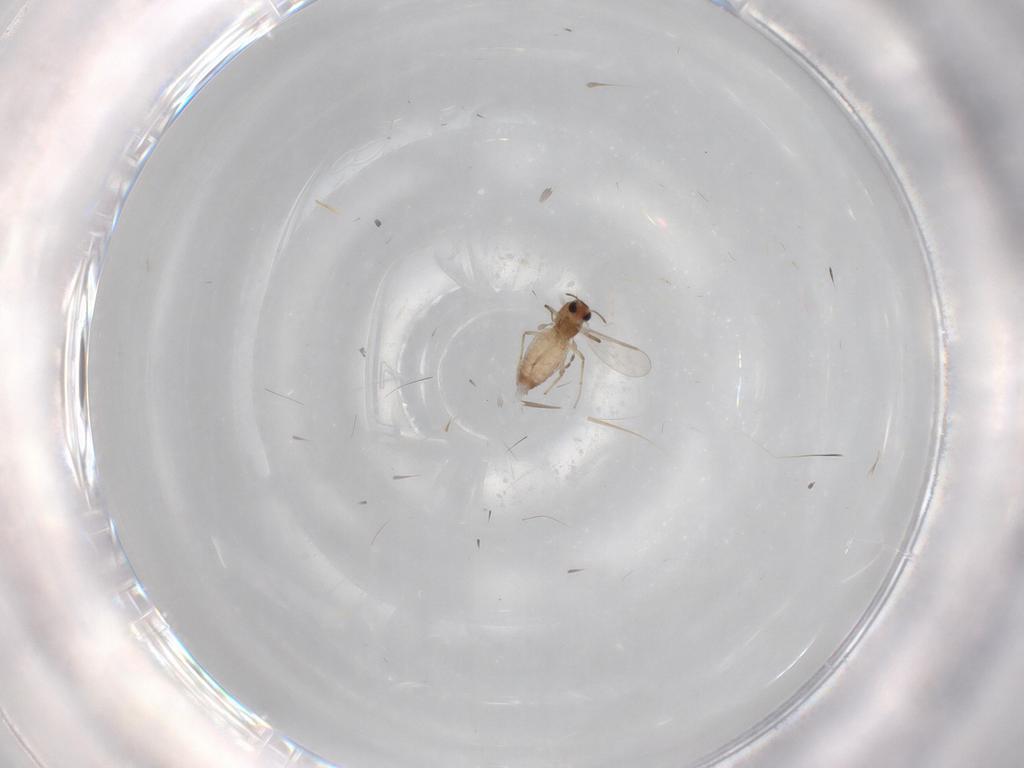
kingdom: Animalia
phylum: Arthropoda
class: Insecta
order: Diptera
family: Cecidomyiidae
